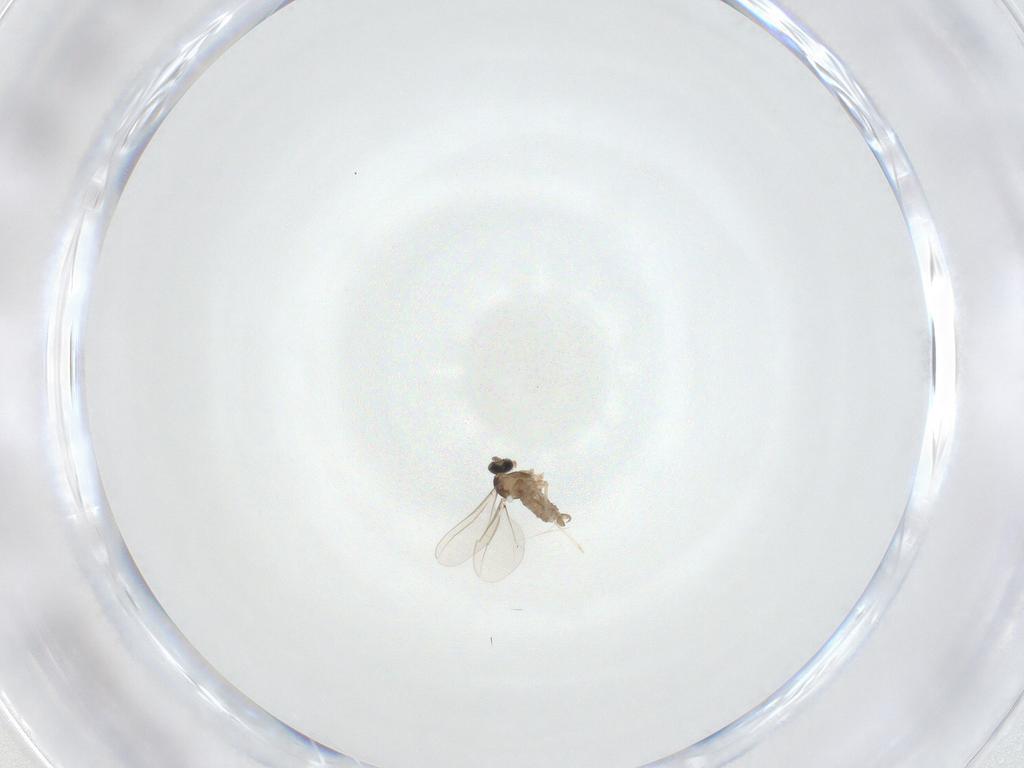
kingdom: Animalia
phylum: Arthropoda
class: Insecta
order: Diptera
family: Cecidomyiidae
